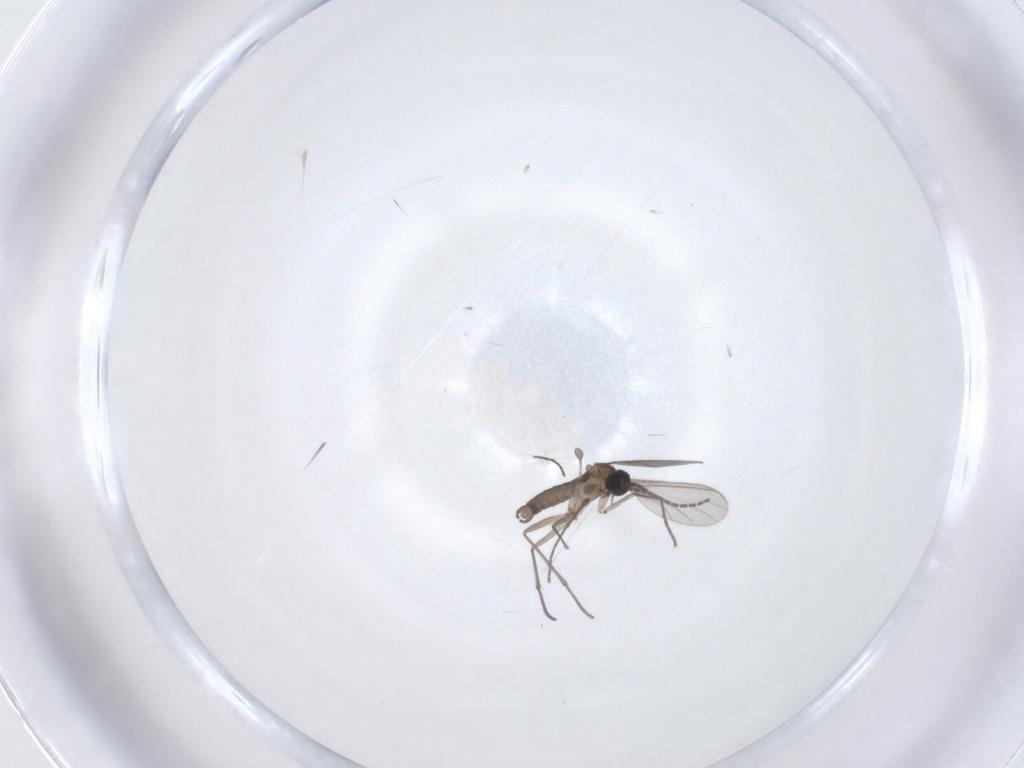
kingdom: Animalia
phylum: Arthropoda
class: Insecta
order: Diptera
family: Sciaridae
